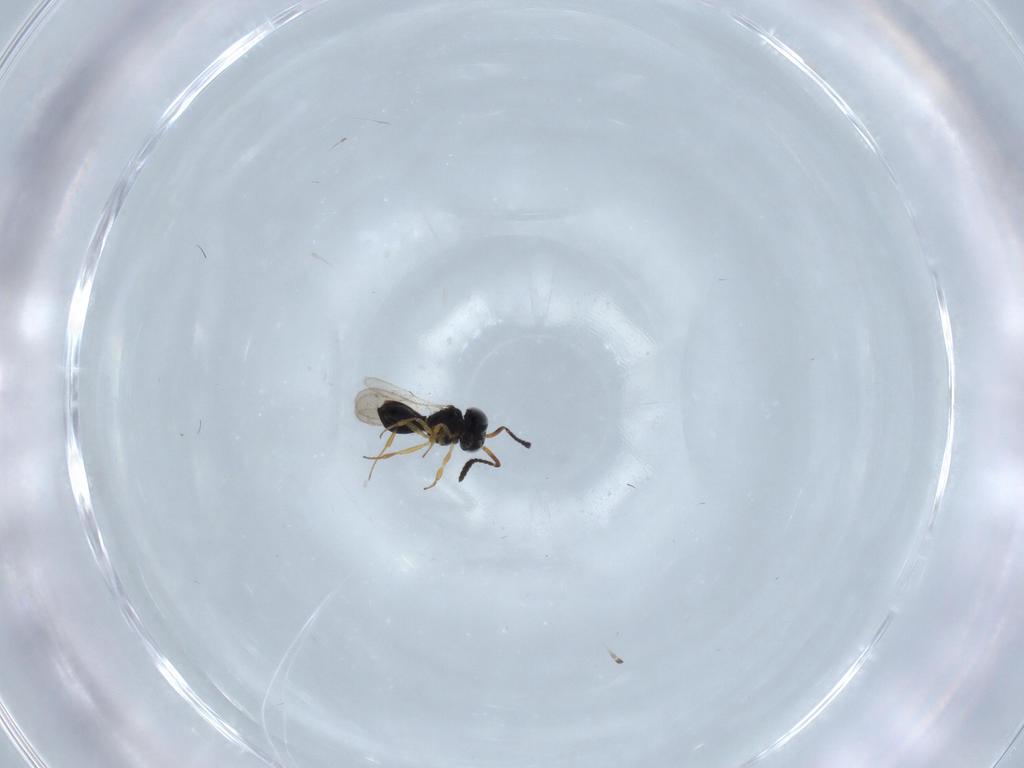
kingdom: Animalia
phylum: Arthropoda
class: Insecta
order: Hymenoptera
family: Scelionidae
